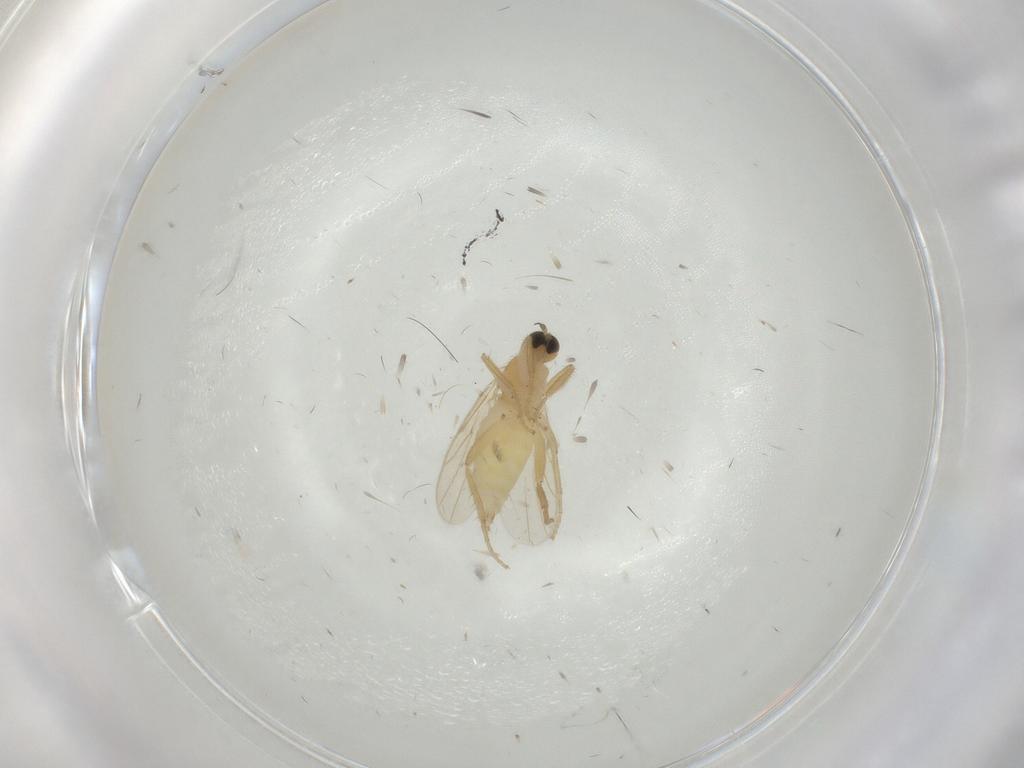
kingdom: Animalia
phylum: Arthropoda
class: Insecta
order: Diptera
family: Hybotidae
